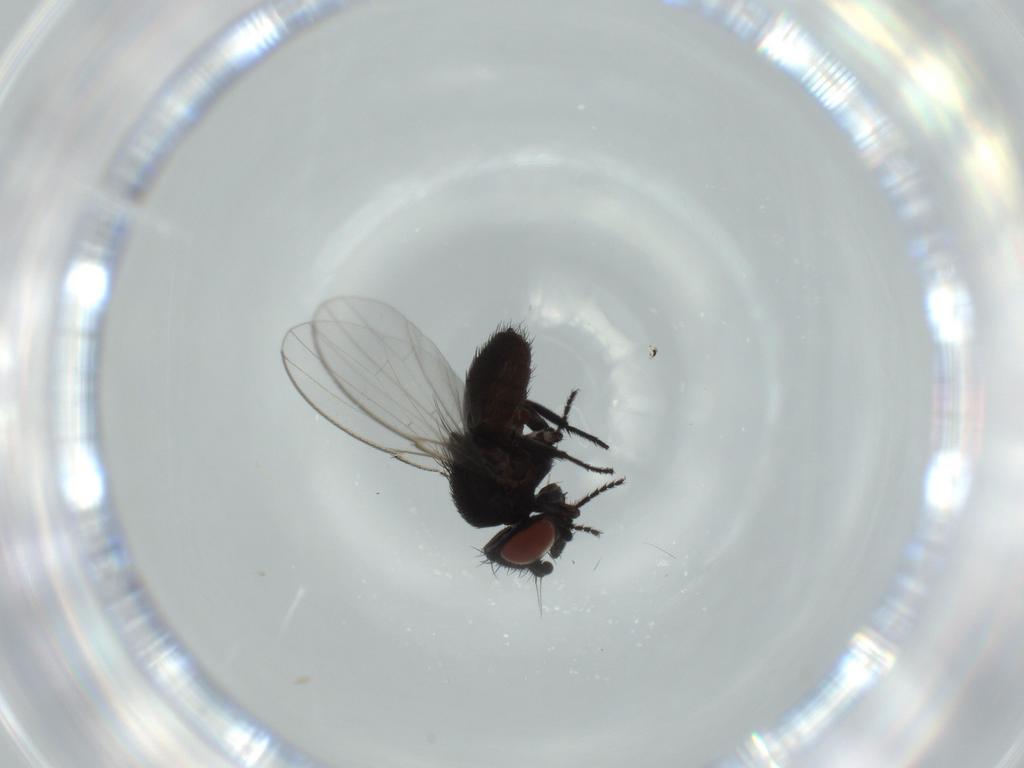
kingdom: Animalia
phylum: Arthropoda
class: Insecta
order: Diptera
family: Milichiidae
